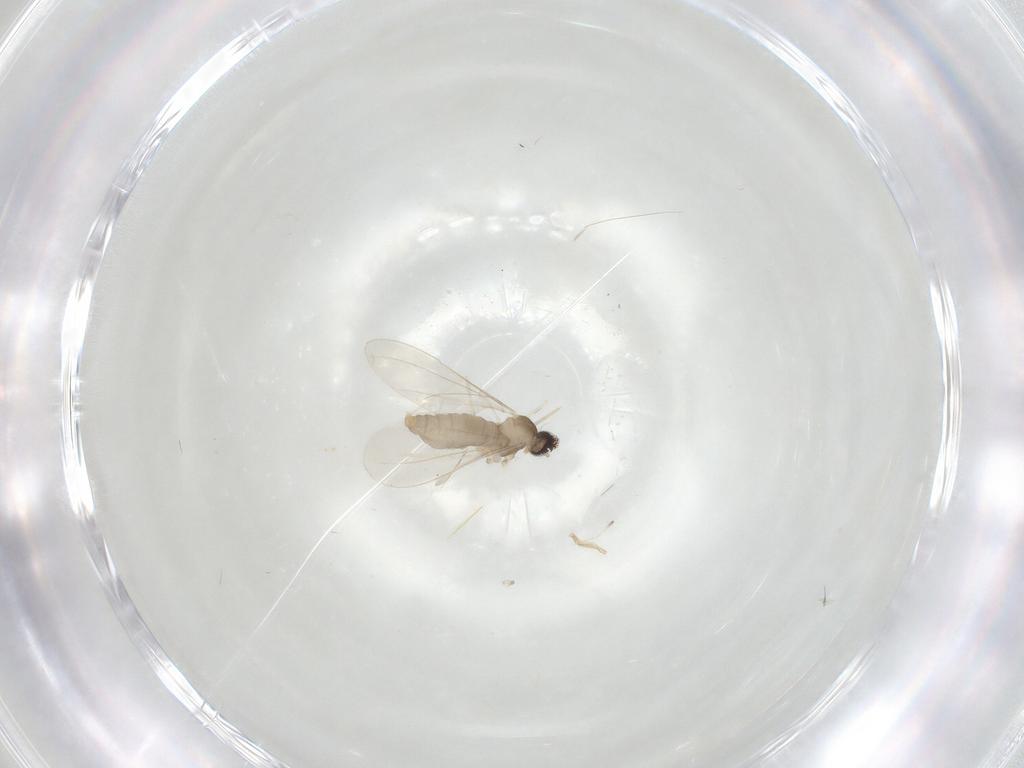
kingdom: Animalia
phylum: Arthropoda
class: Insecta
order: Diptera
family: Cecidomyiidae
